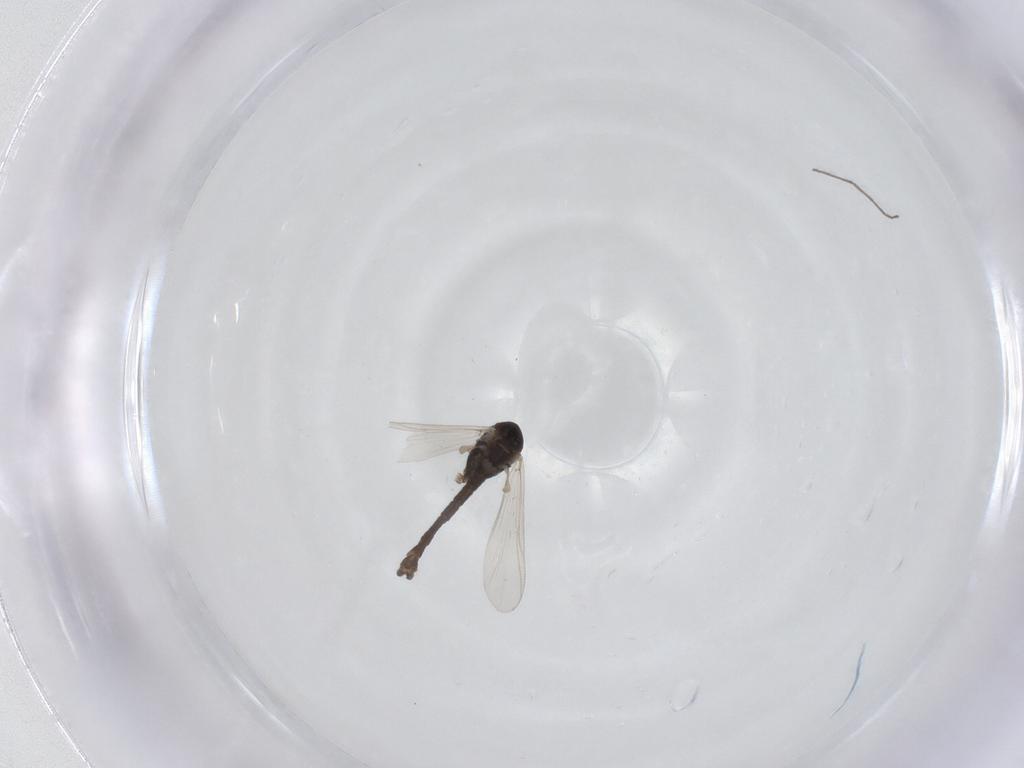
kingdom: Animalia
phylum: Arthropoda
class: Insecta
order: Diptera
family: Chironomidae
